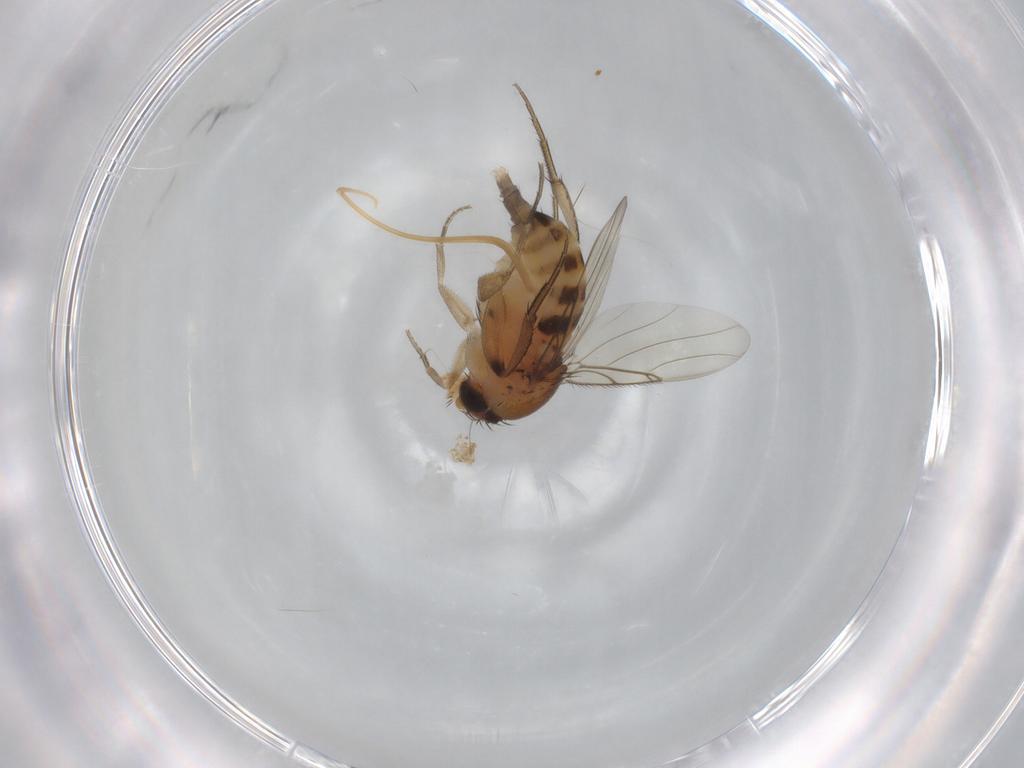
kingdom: Animalia
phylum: Arthropoda
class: Insecta
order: Diptera
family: Phoridae
